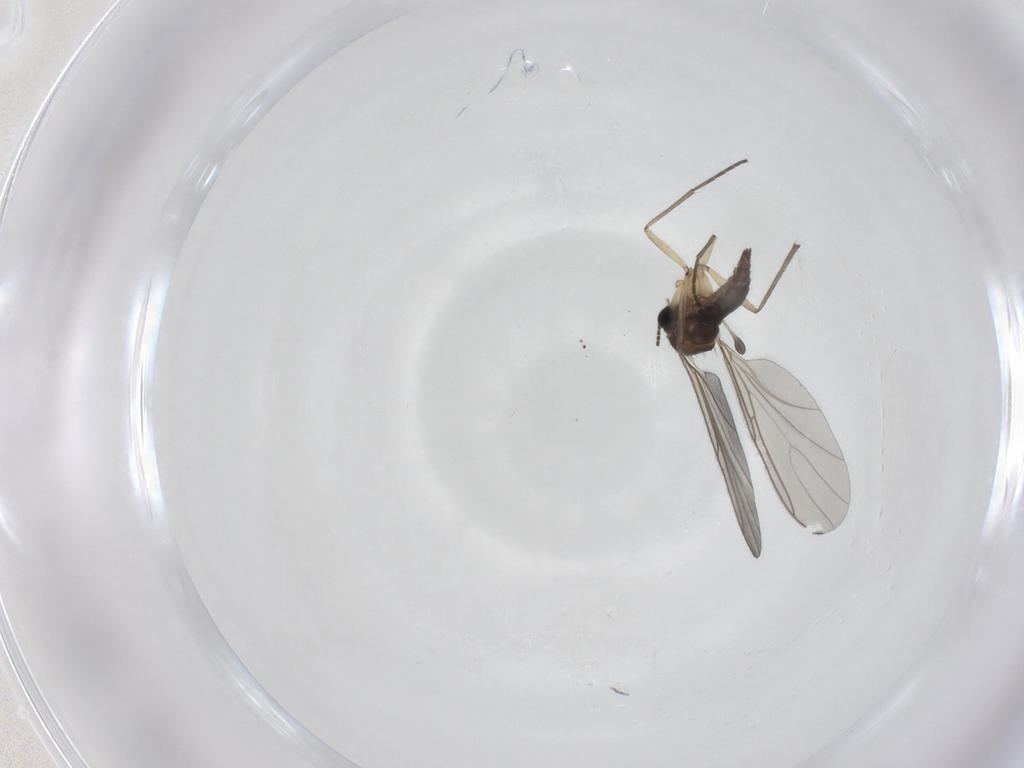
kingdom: Animalia
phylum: Arthropoda
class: Insecta
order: Diptera
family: Sciaridae
